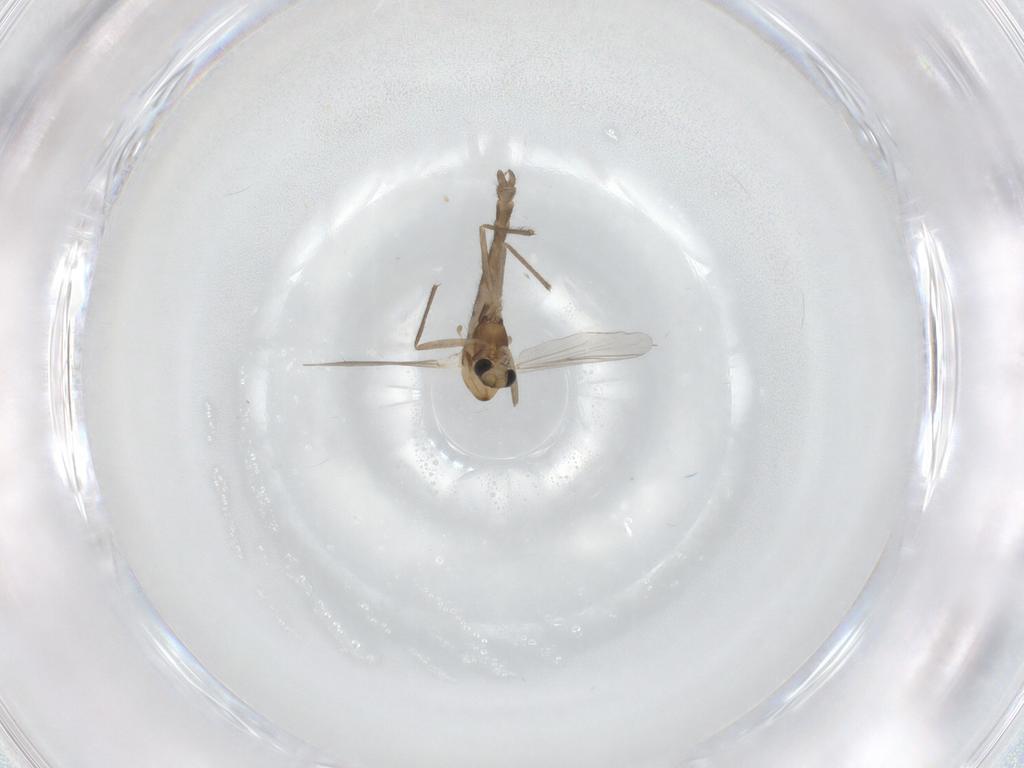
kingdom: Animalia
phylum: Arthropoda
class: Insecta
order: Diptera
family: Chironomidae
